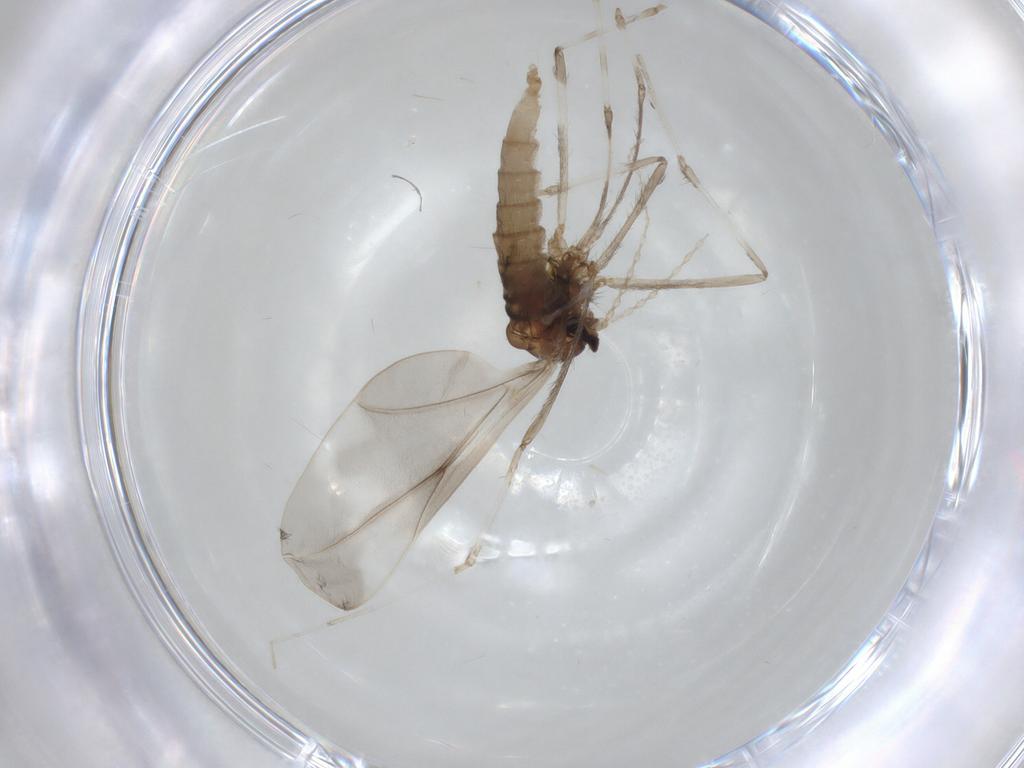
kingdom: Animalia
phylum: Arthropoda
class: Insecta
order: Diptera
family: Cecidomyiidae
